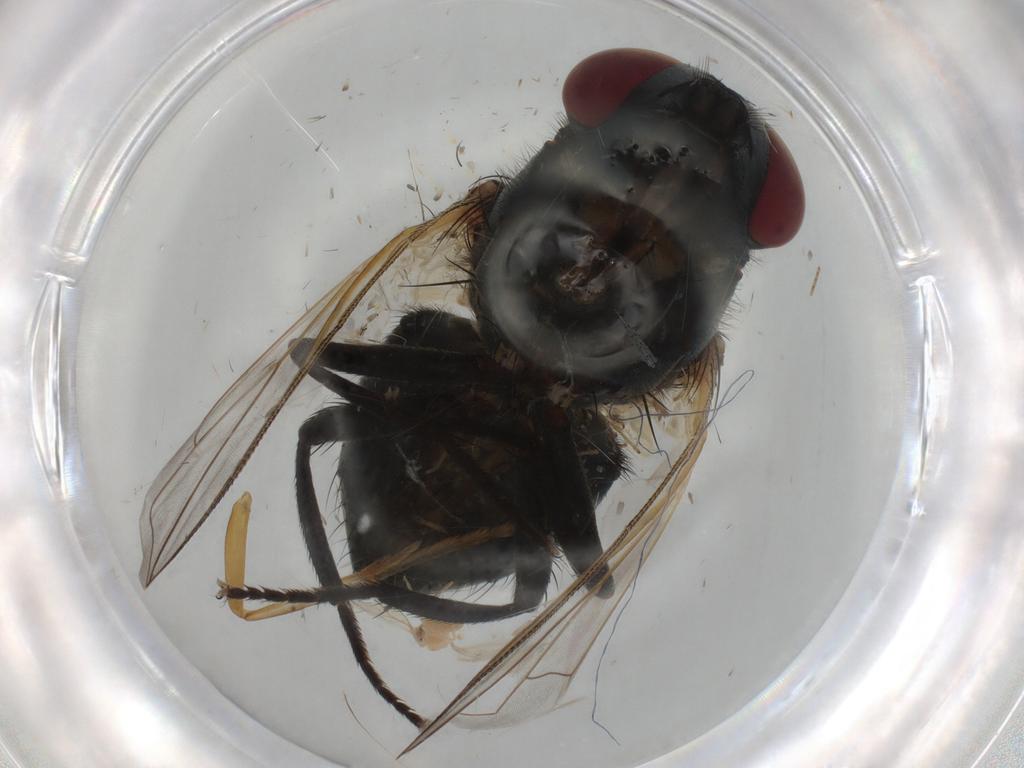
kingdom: Animalia
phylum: Arthropoda
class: Insecta
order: Diptera
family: Muscidae
